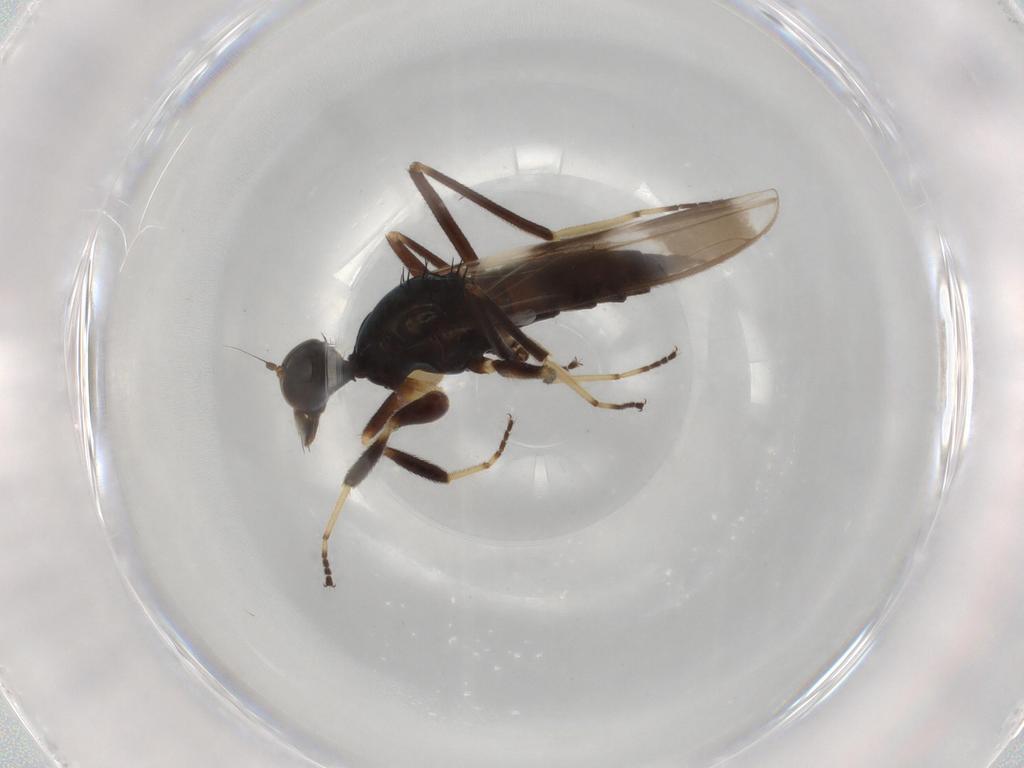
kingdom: Animalia
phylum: Arthropoda
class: Insecta
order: Diptera
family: Hybotidae
